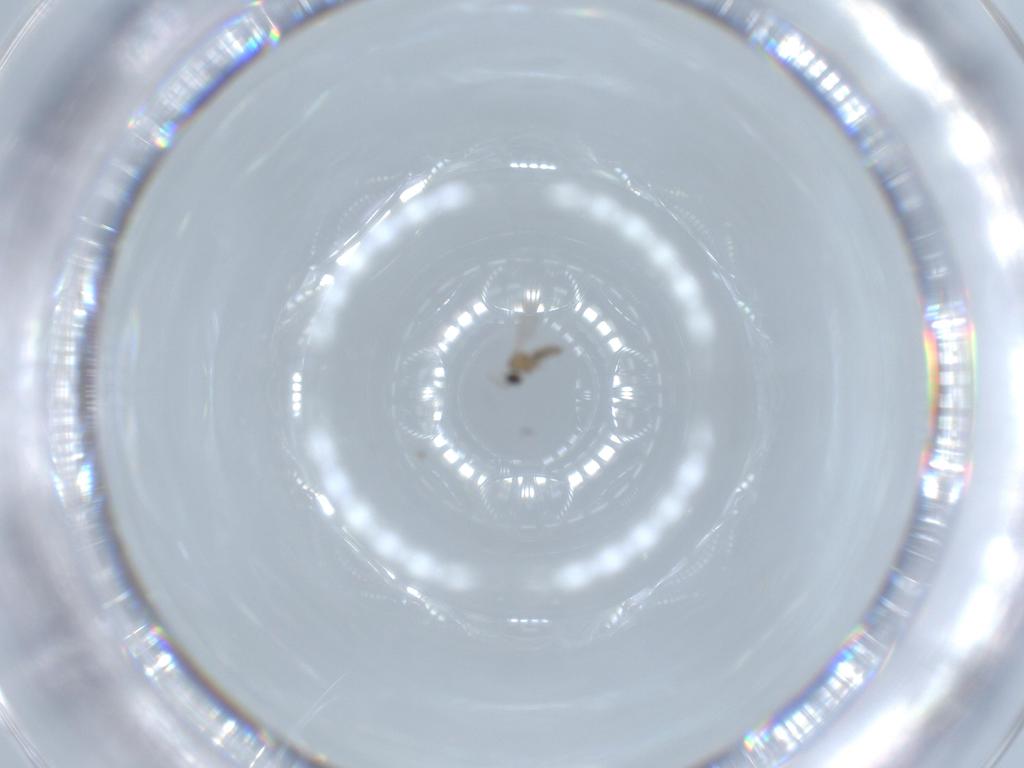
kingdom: Animalia
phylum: Arthropoda
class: Insecta
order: Diptera
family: Cecidomyiidae
